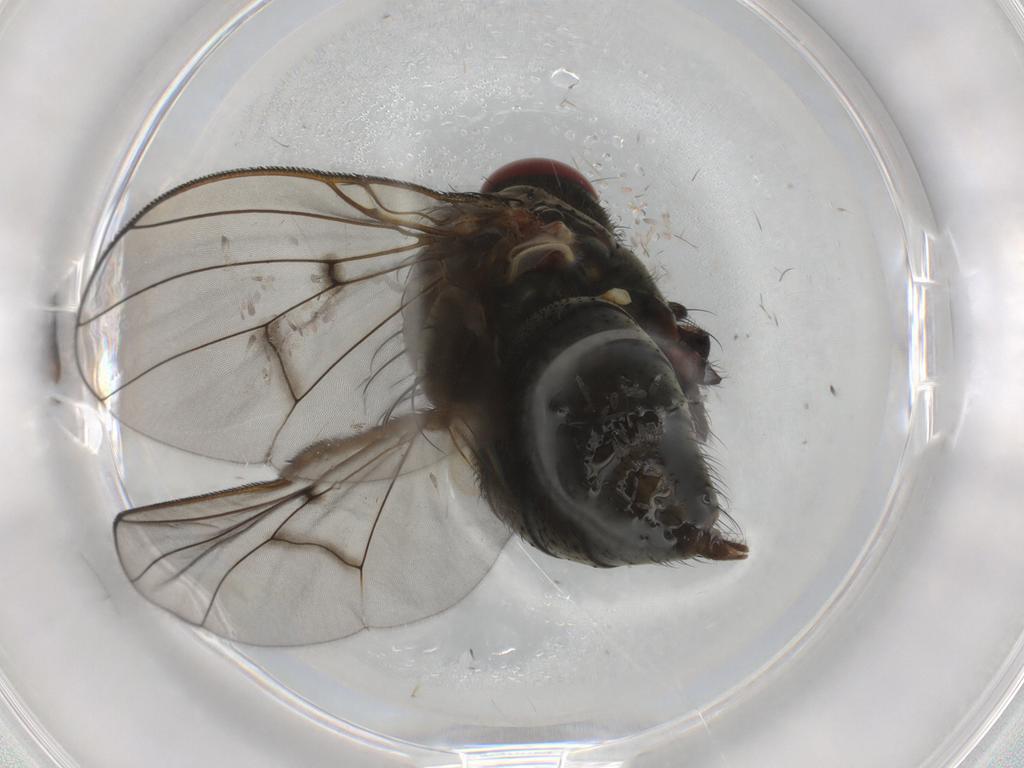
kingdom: Animalia
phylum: Arthropoda
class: Insecta
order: Diptera
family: Muscidae
